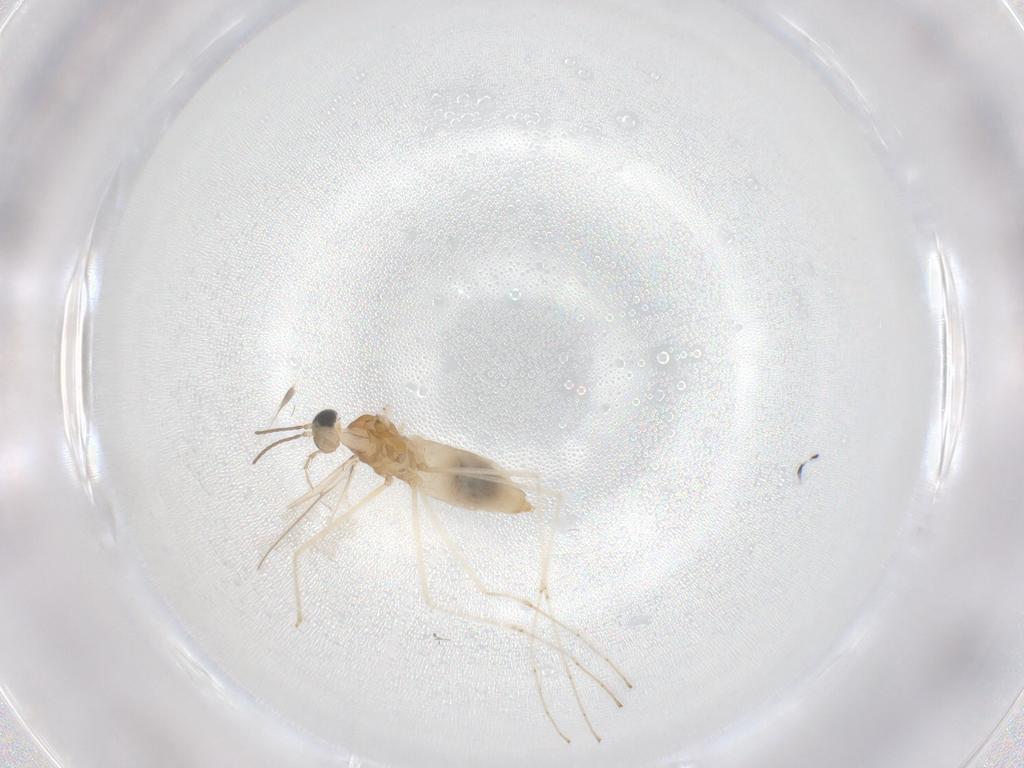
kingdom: Animalia
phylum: Arthropoda
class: Insecta
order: Diptera
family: Cecidomyiidae
